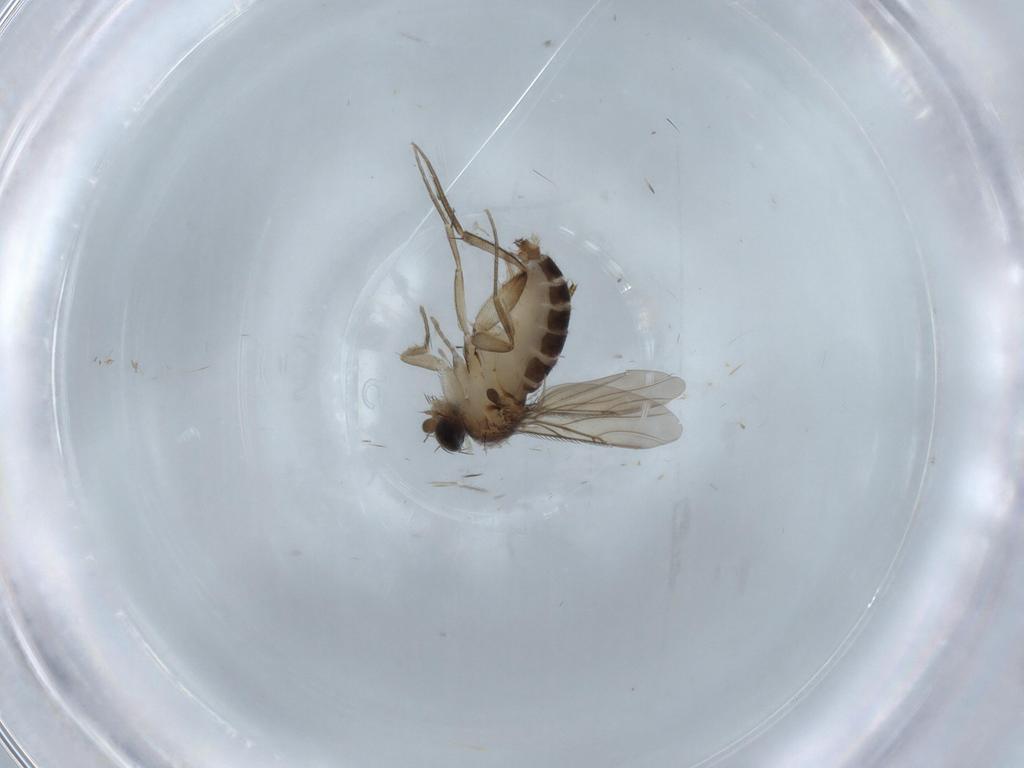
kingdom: Animalia
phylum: Arthropoda
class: Insecta
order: Diptera
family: Phoridae
